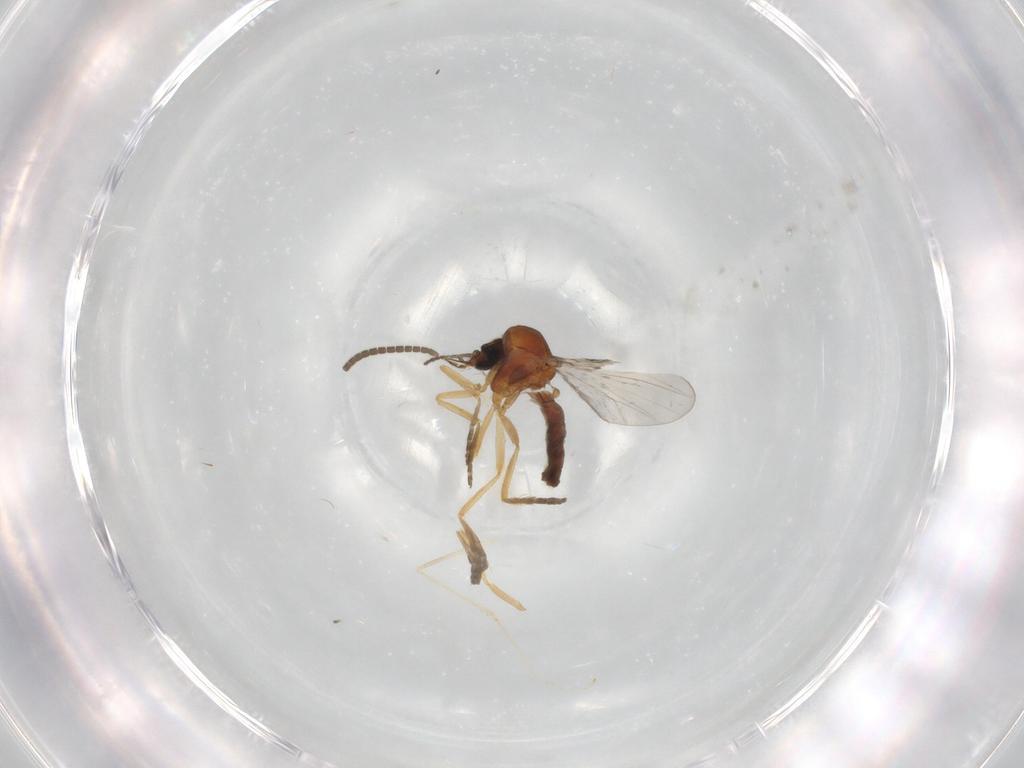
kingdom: Animalia
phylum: Arthropoda
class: Insecta
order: Diptera
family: Ceratopogonidae
